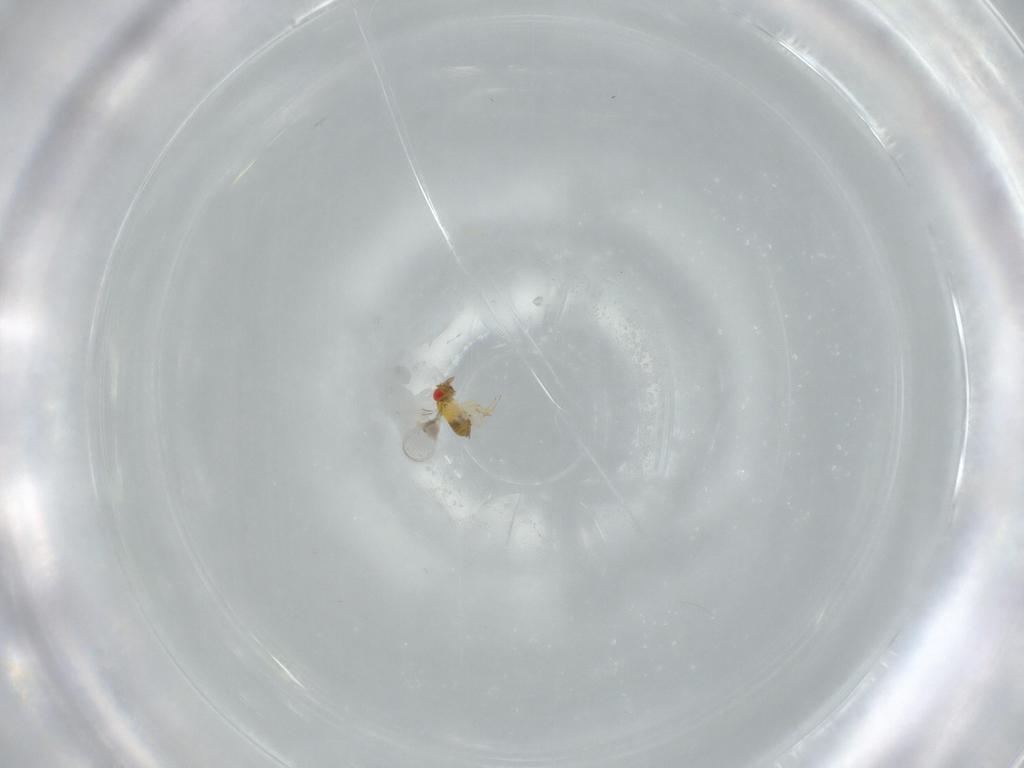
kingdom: Animalia
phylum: Arthropoda
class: Insecta
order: Hymenoptera
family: Trichogrammatidae
